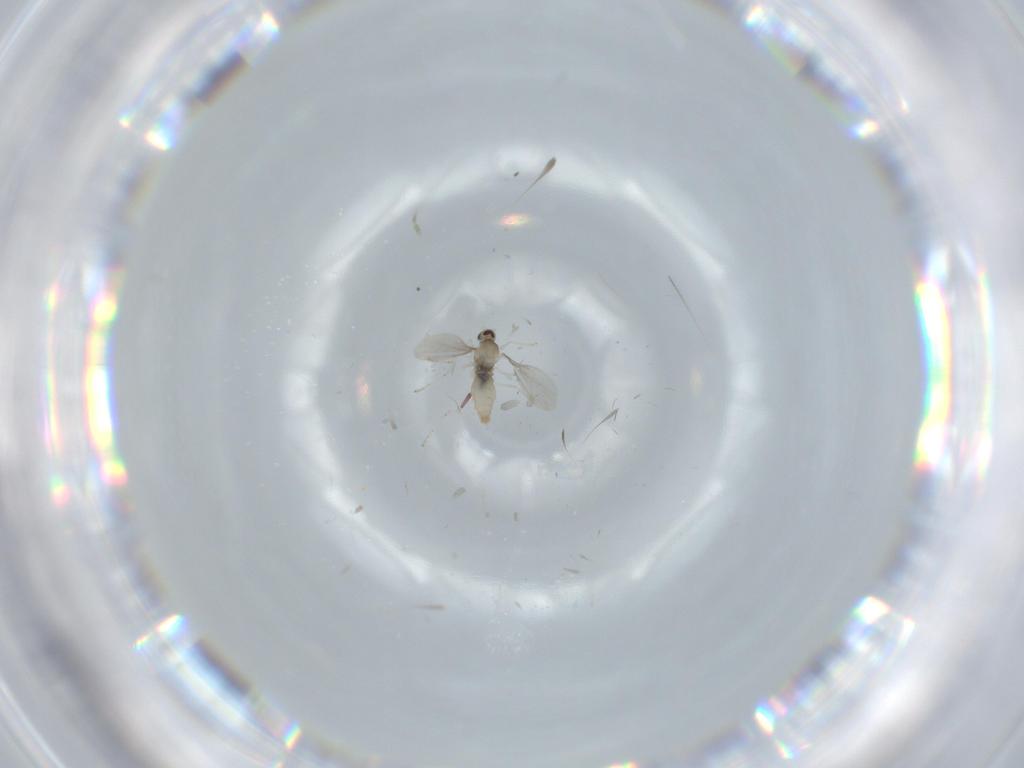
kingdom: Animalia
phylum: Arthropoda
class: Insecta
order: Diptera
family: Cecidomyiidae
